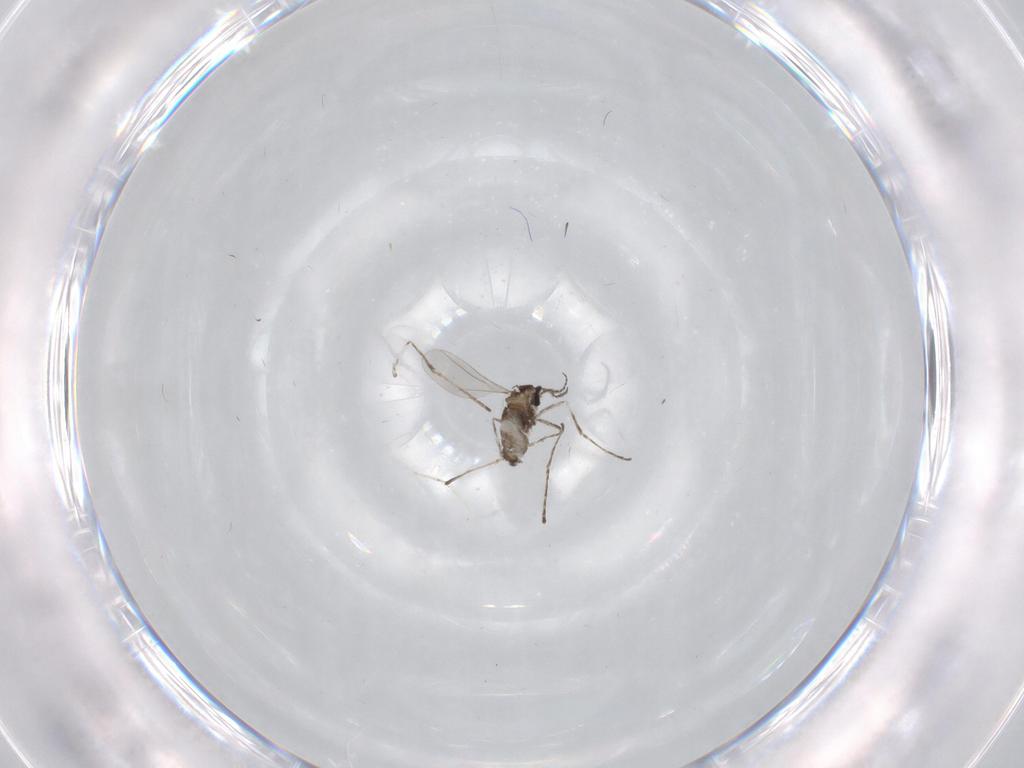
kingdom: Animalia
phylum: Arthropoda
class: Insecta
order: Diptera
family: Cecidomyiidae
